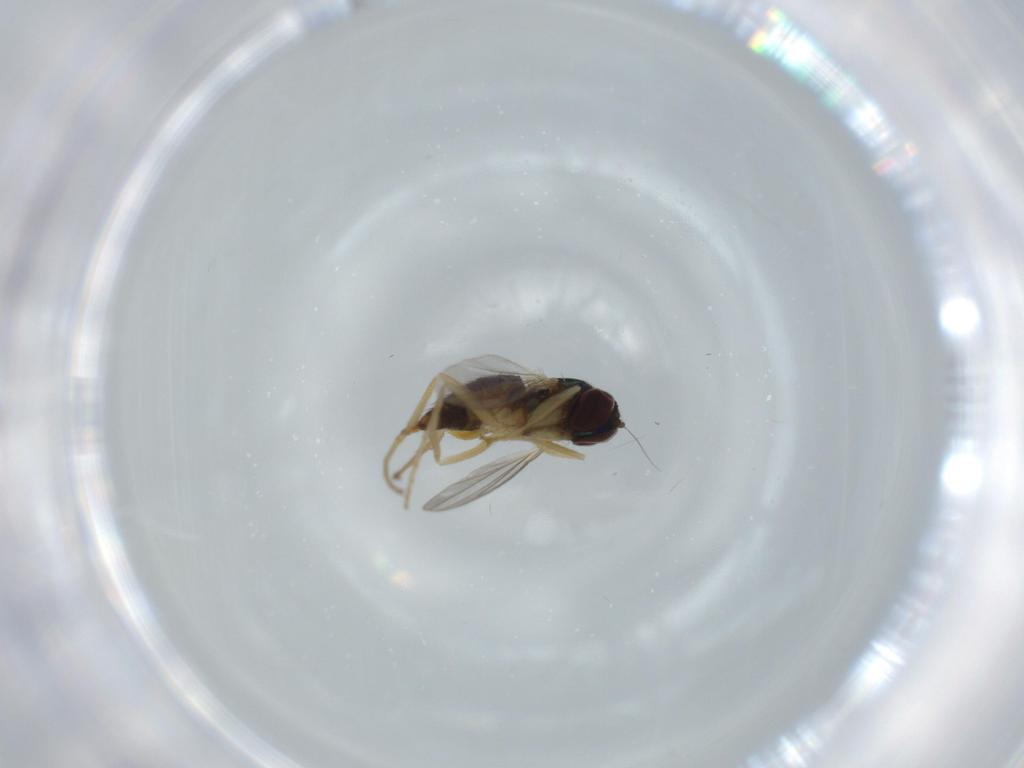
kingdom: Animalia
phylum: Arthropoda
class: Insecta
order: Diptera
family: Dolichopodidae
